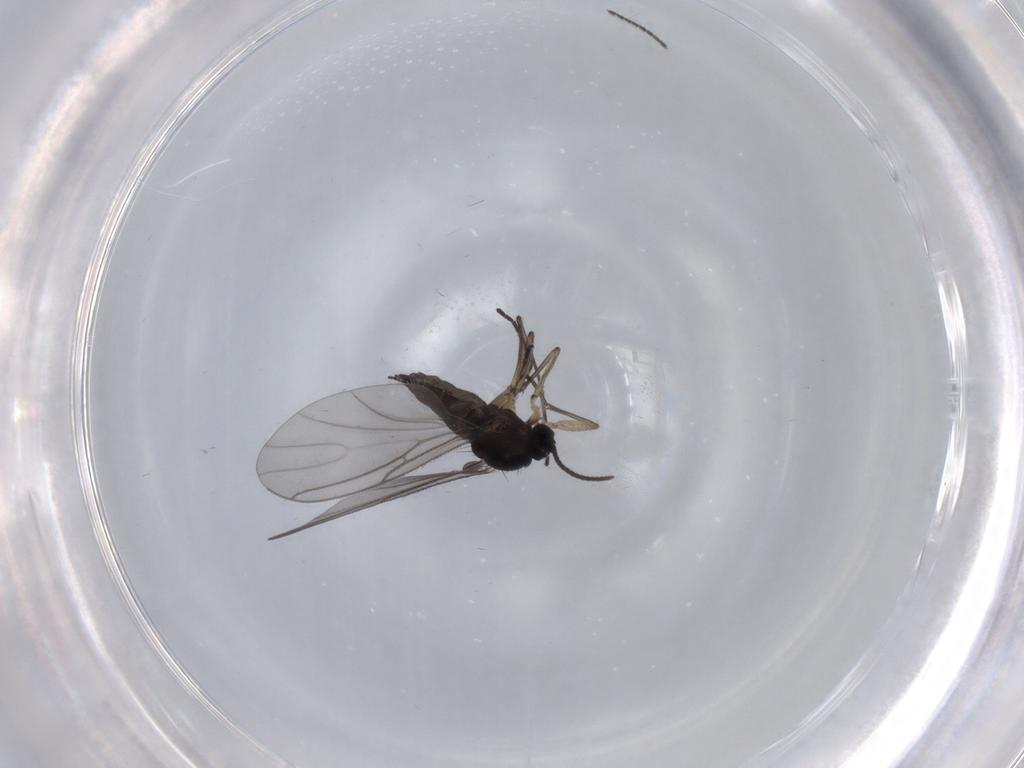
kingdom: Animalia
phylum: Arthropoda
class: Insecta
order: Diptera
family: Sciaridae
